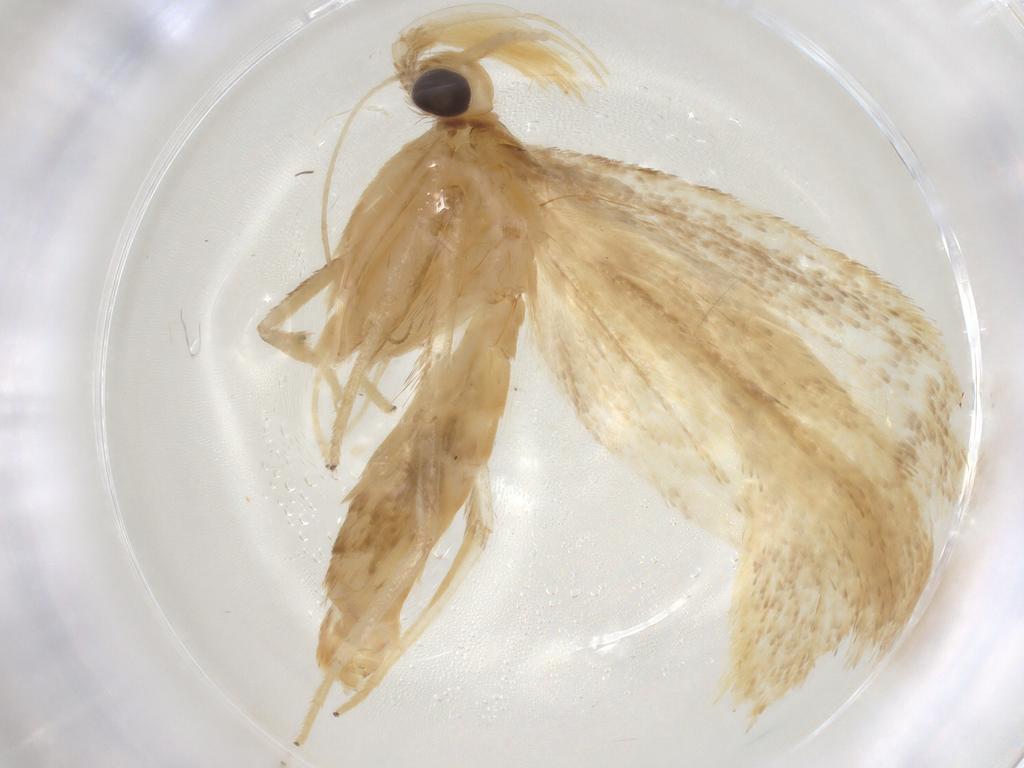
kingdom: Animalia
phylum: Arthropoda
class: Insecta
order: Lepidoptera
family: Lecithoceridae
